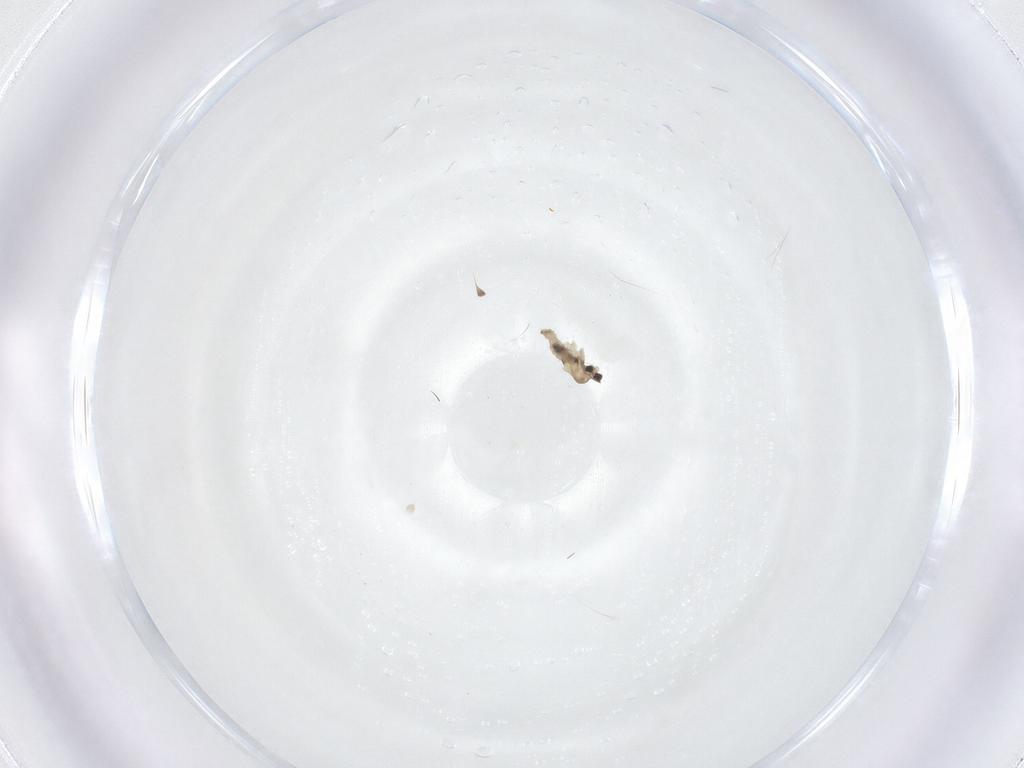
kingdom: Animalia
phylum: Arthropoda
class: Insecta
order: Diptera
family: Cecidomyiidae
